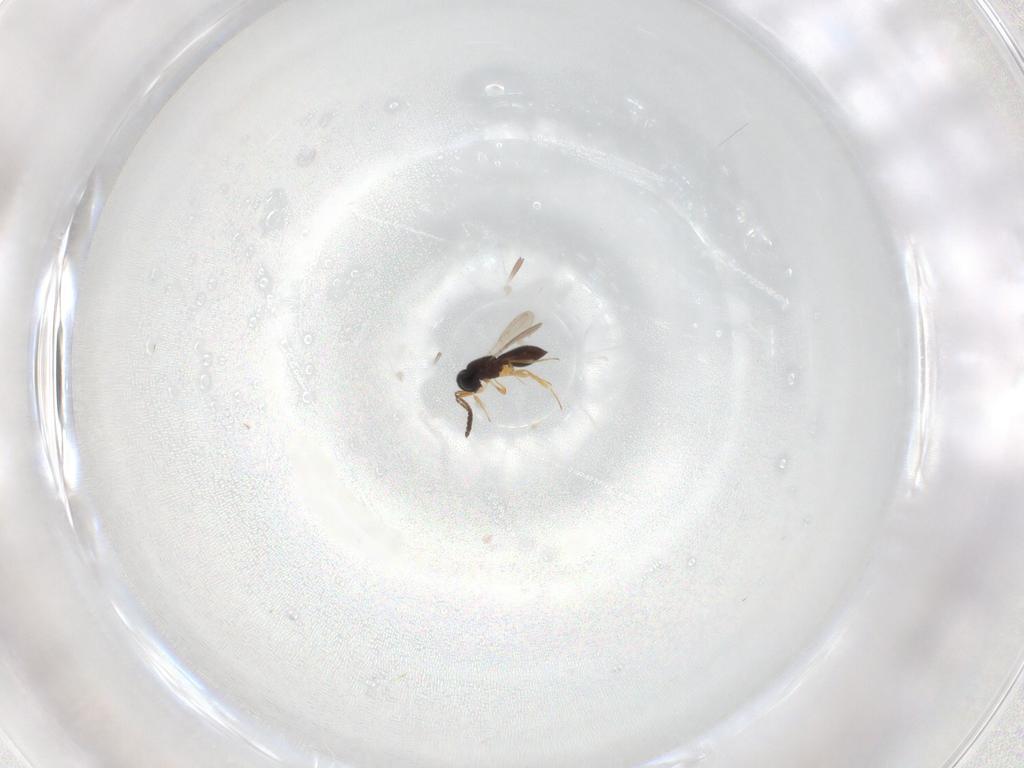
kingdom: Animalia
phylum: Arthropoda
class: Insecta
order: Hymenoptera
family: Scelionidae
